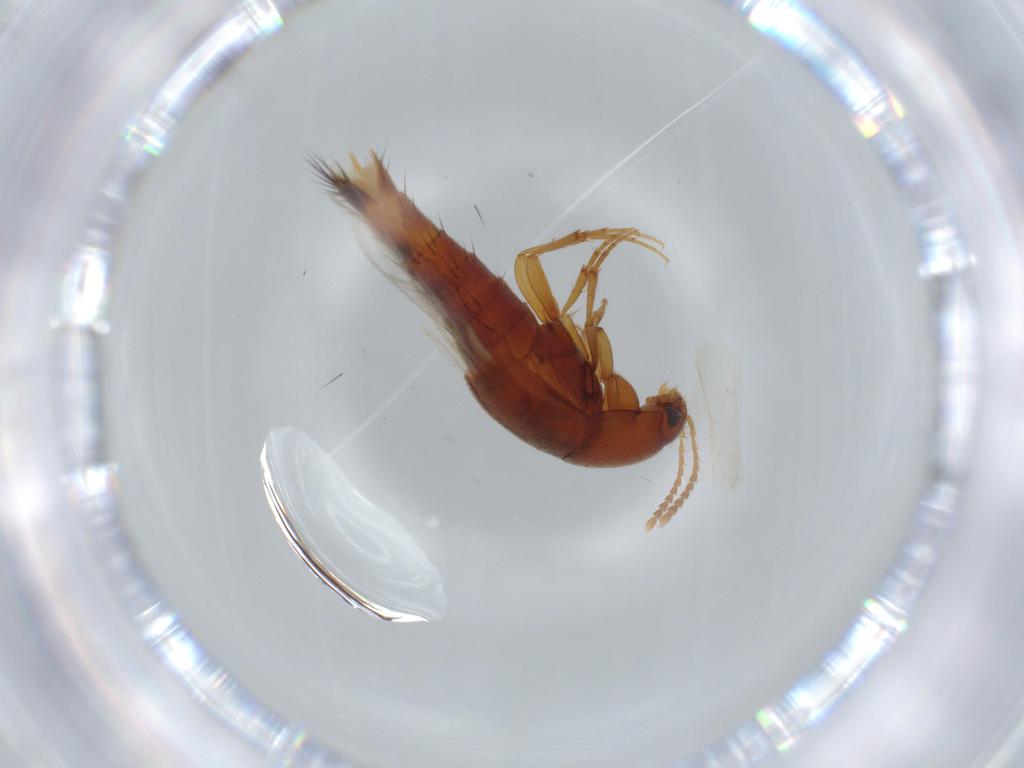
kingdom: Animalia
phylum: Arthropoda
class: Insecta
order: Coleoptera
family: Staphylinidae
